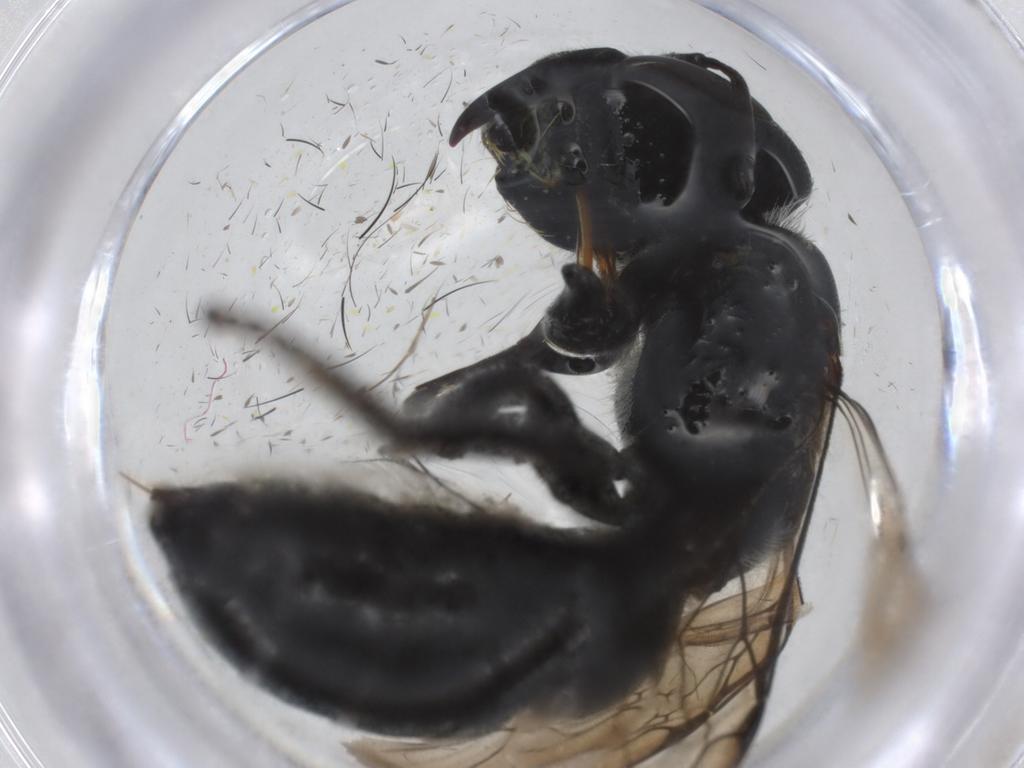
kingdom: Animalia
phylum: Arthropoda
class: Insecta
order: Hymenoptera
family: Megachilidae
